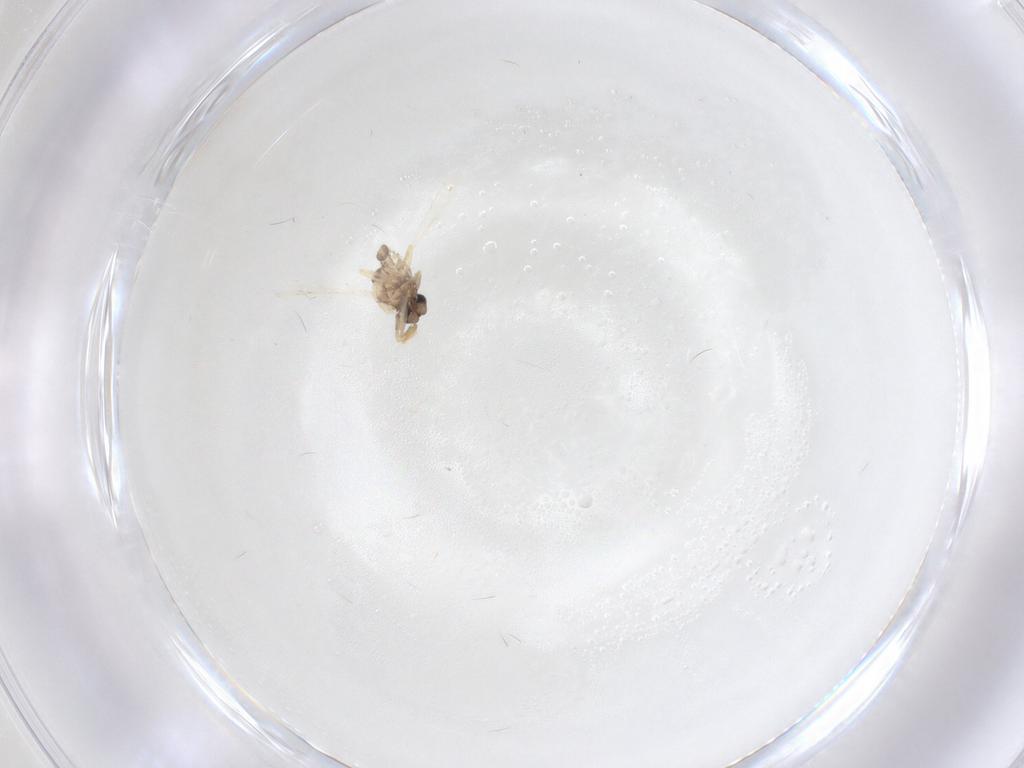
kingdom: Animalia
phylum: Arthropoda
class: Insecta
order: Diptera
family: Ceratopogonidae
